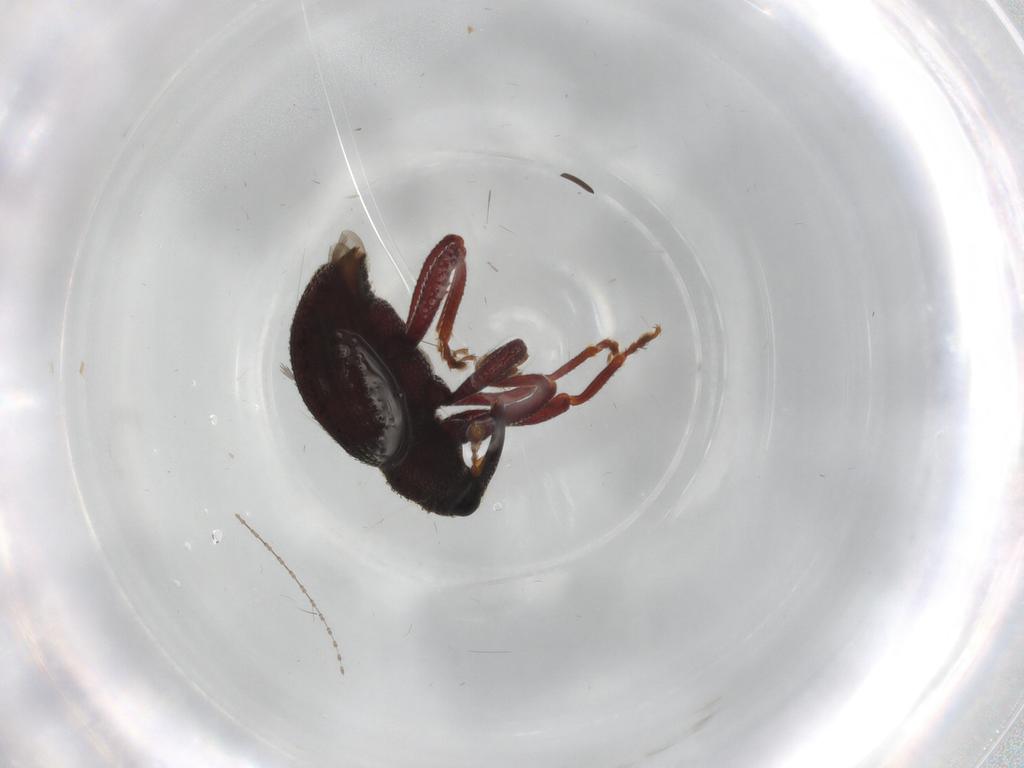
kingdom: Animalia
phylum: Arthropoda
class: Insecta
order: Coleoptera
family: Curculionidae
